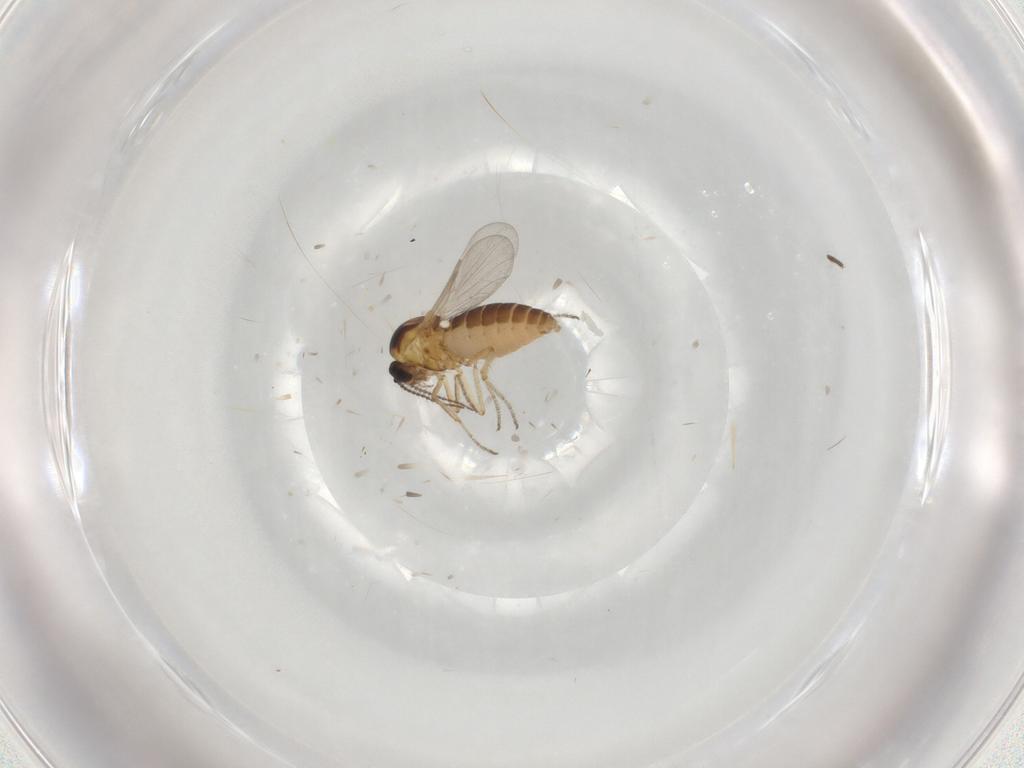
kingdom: Animalia
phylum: Arthropoda
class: Insecta
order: Diptera
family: Ceratopogonidae
